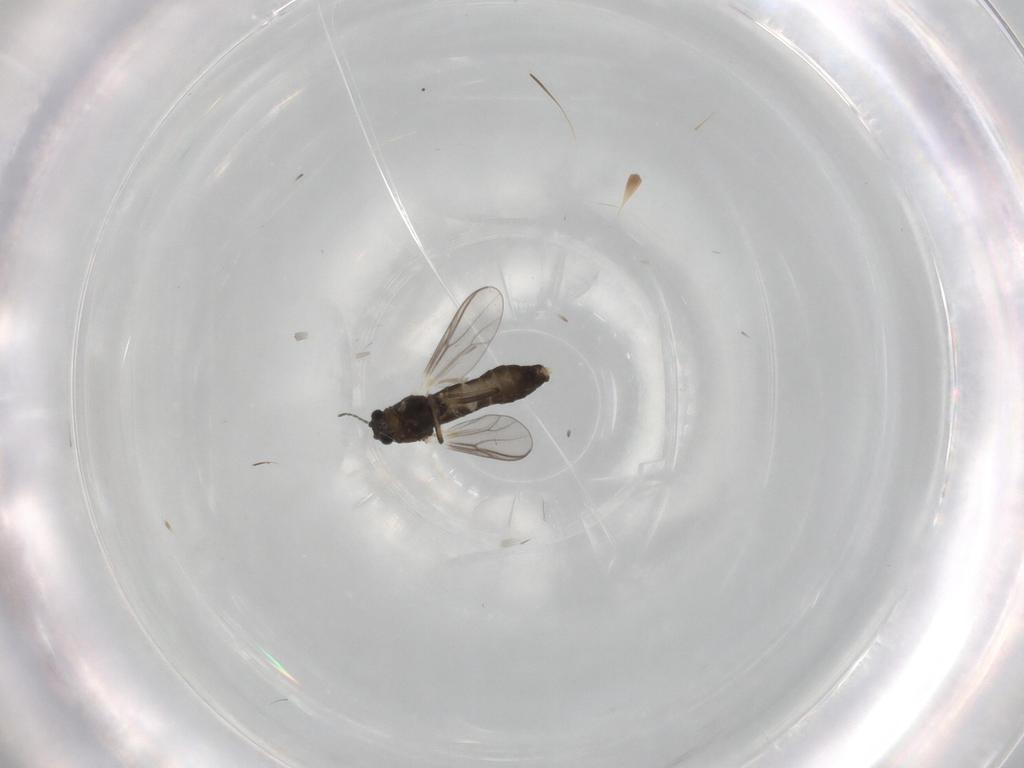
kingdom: Animalia
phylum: Arthropoda
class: Insecta
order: Diptera
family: Chironomidae
